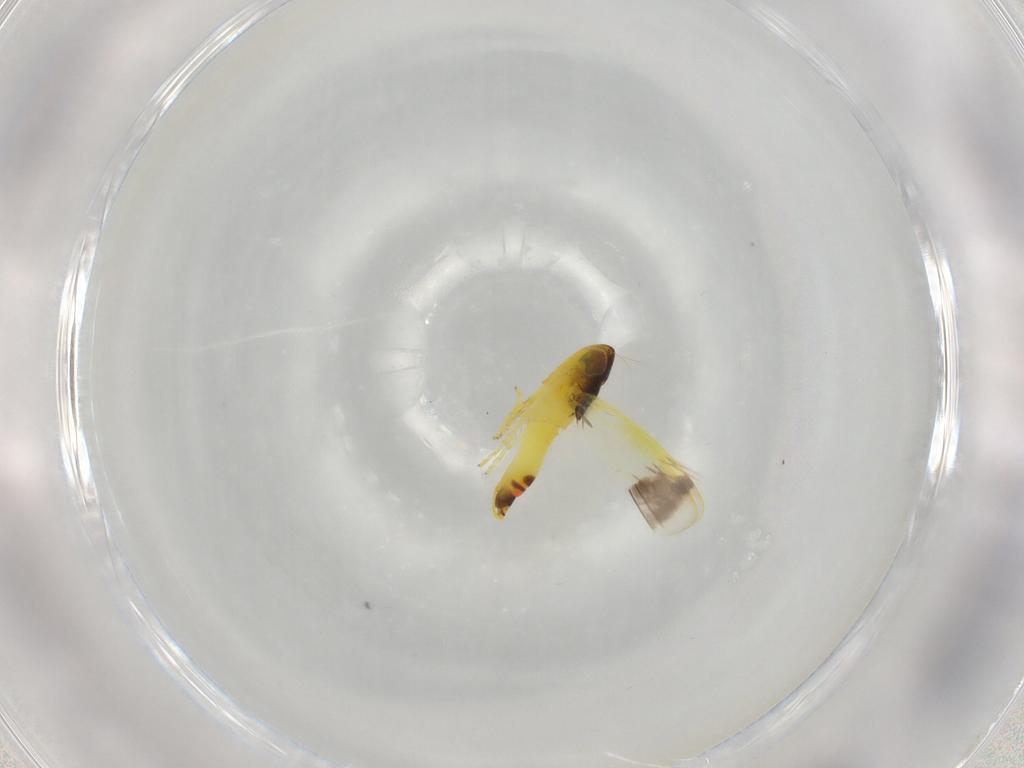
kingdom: Animalia
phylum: Arthropoda
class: Insecta
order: Hemiptera
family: Cicadellidae
